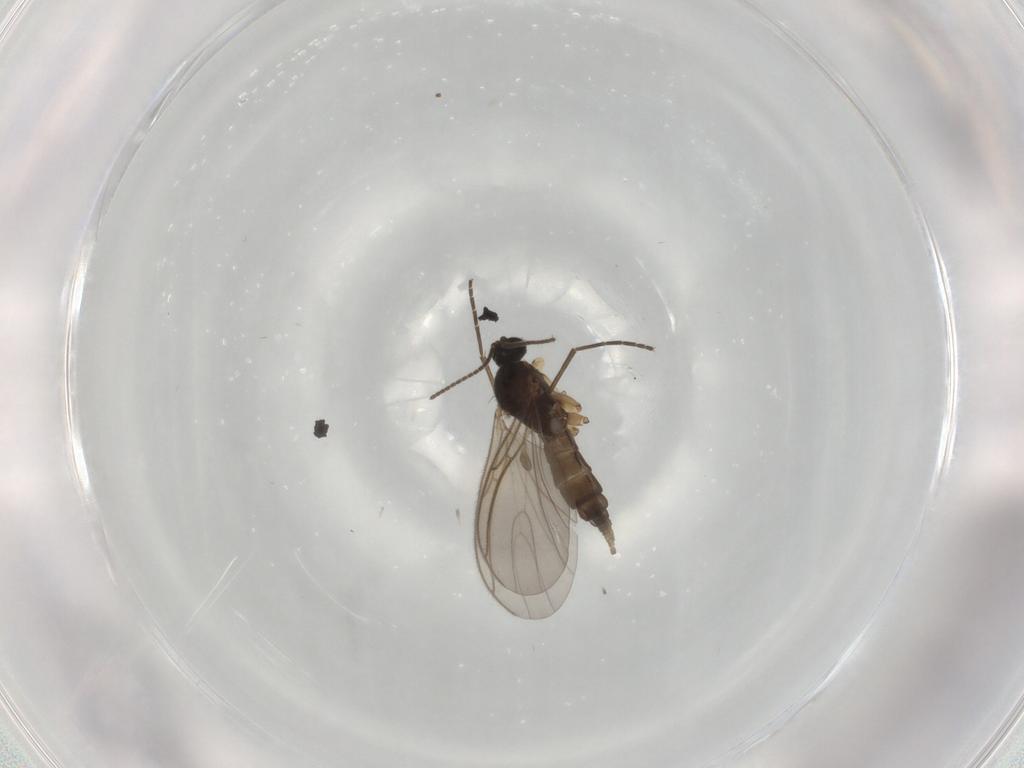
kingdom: Animalia
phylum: Arthropoda
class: Insecta
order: Diptera
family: Sciaridae
